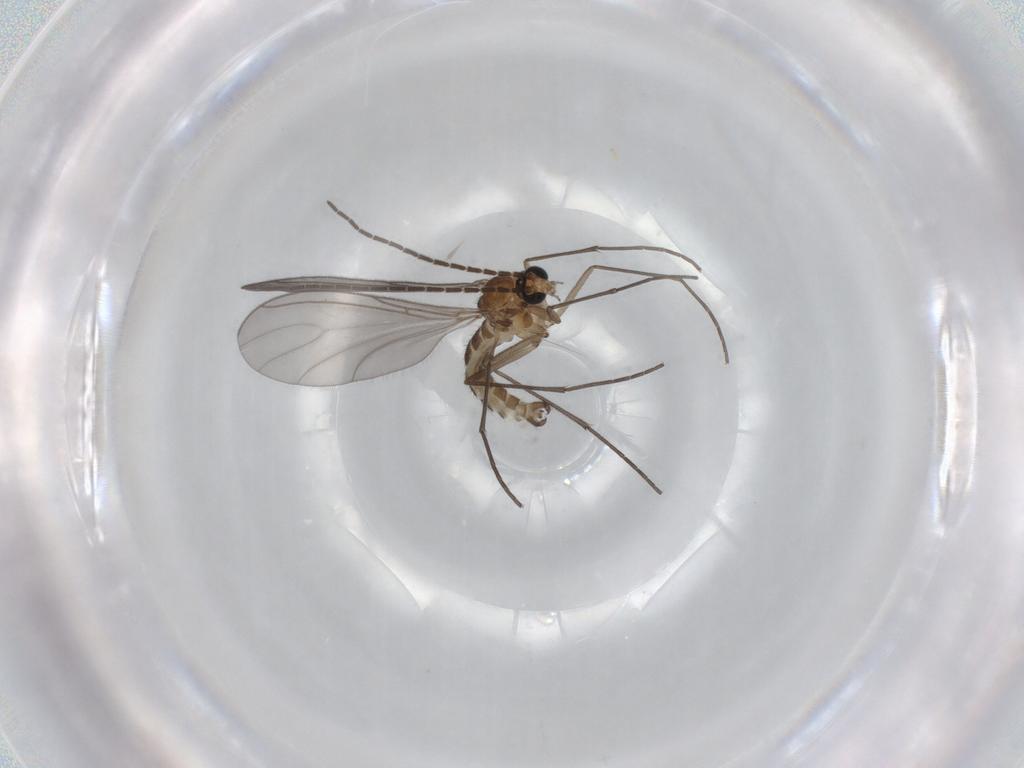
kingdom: Animalia
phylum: Arthropoda
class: Insecta
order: Diptera
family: Sciaridae
